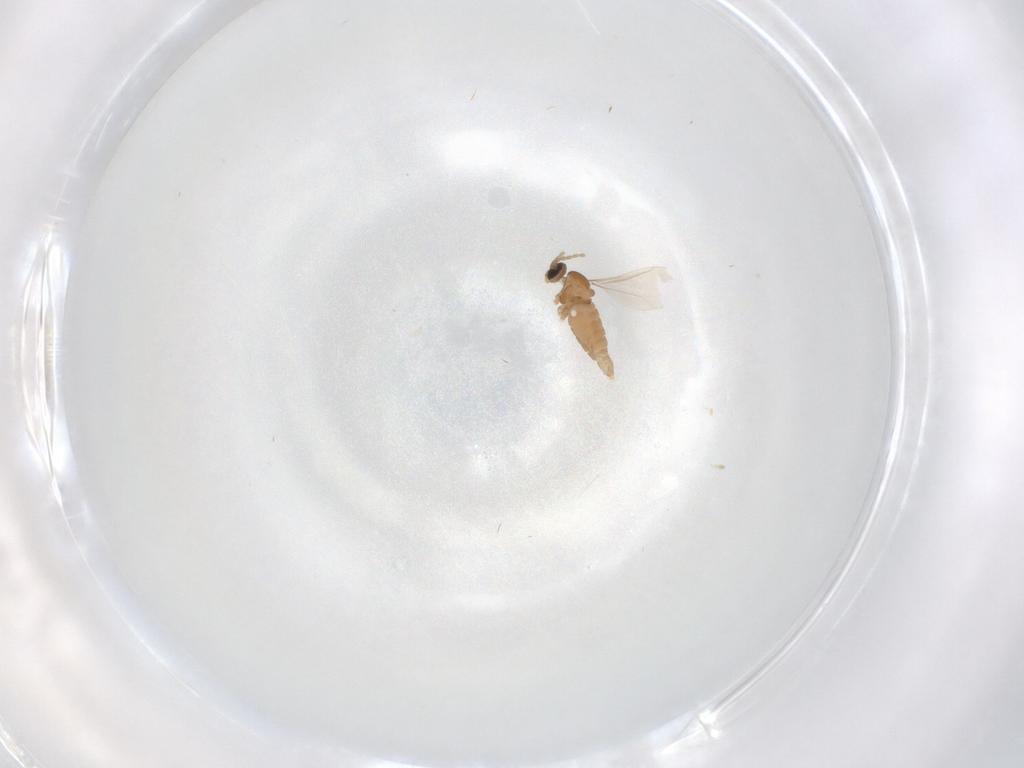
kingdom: Animalia
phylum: Arthropoda
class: Insecta
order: Diptera
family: Cecidomyiidae
